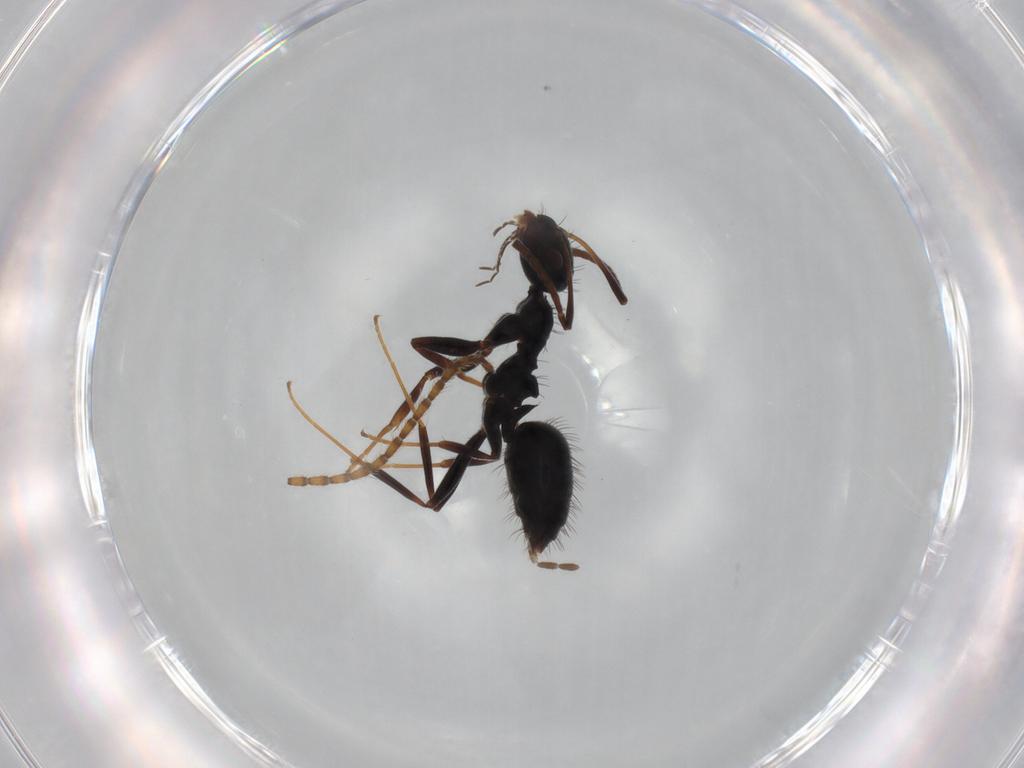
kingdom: Animalia
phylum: Arthropoda
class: Insecta
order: Hymenoptera
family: Formicidae
